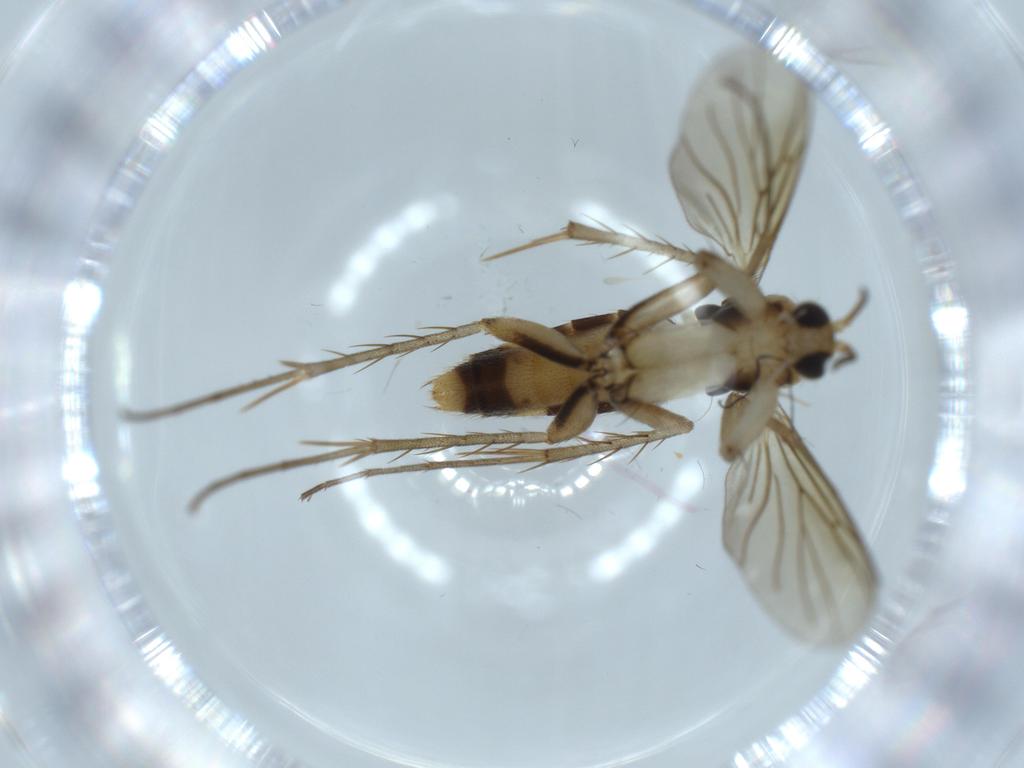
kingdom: Animalia
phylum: Arthropoda
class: Insecta
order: Diptera
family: Mycetophilidae
